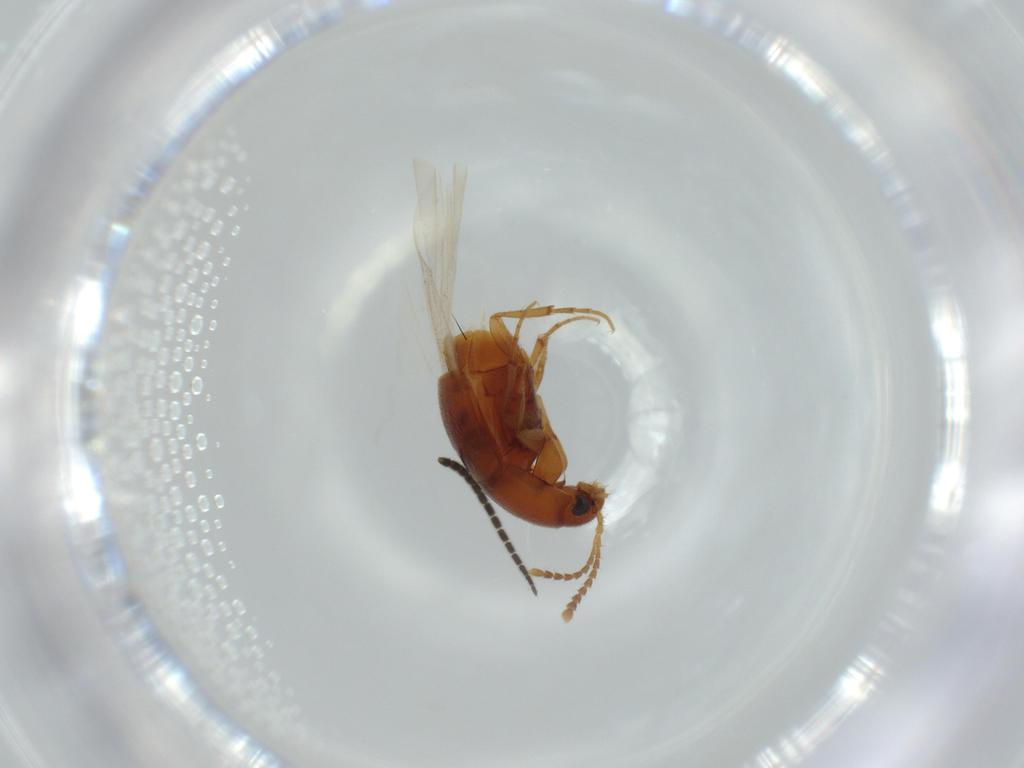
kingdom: Animalia
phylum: Arthropoda
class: Insecta
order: Coleoptera
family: Staphylinidae
